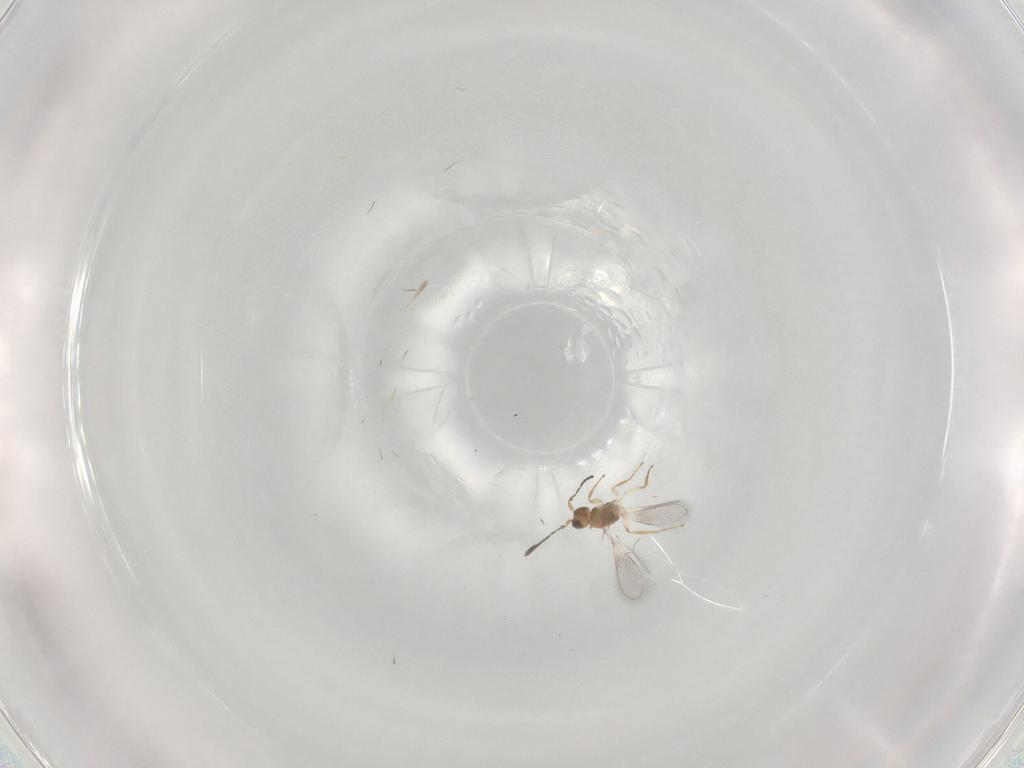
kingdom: Animalia
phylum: Arthropoda
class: Insecta
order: Hymenoptera
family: Mymaridae
